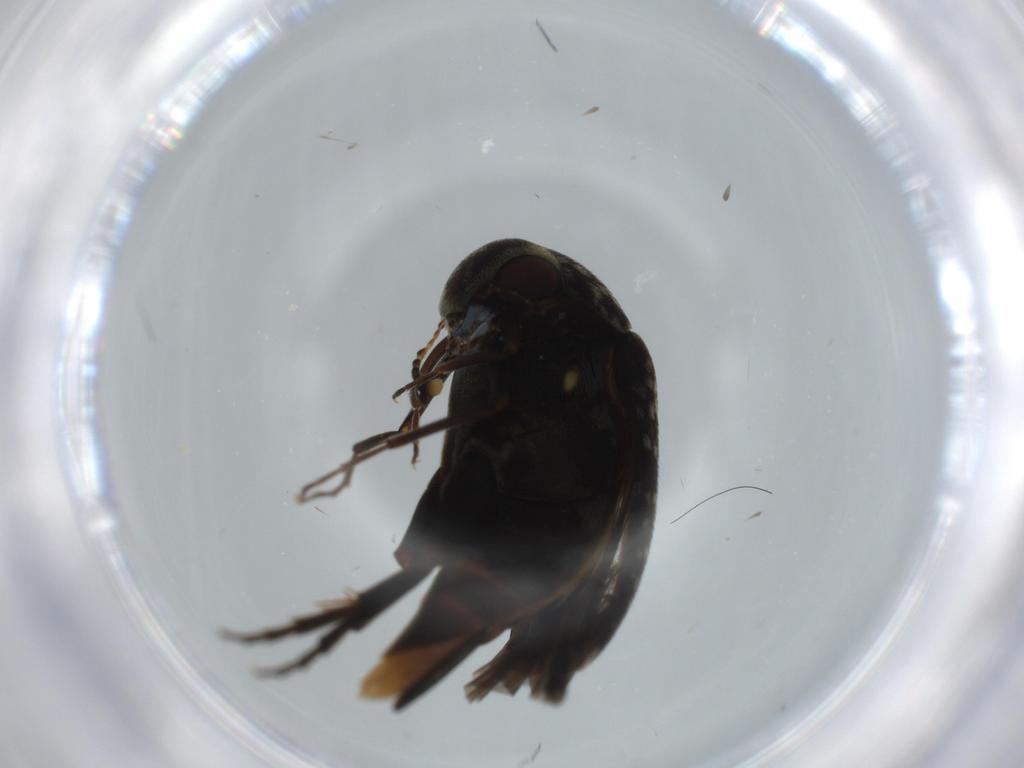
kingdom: Animalia
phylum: Arthropoda
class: Insecta
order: Coleoptera
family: Mordellidae
